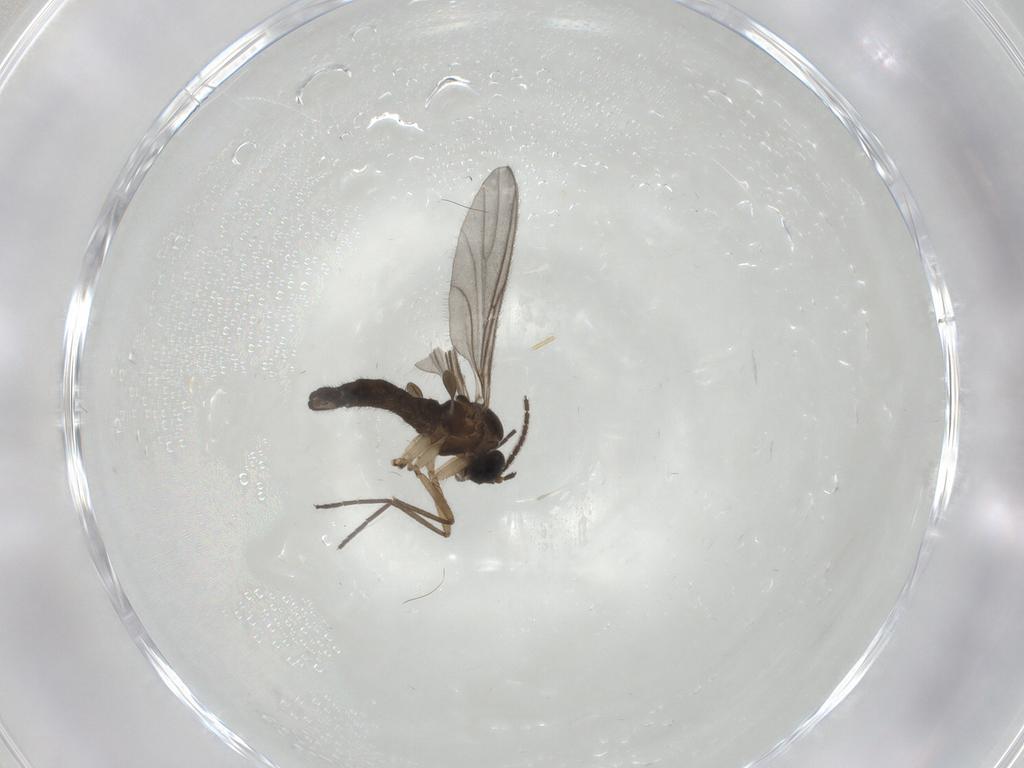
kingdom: Animalia
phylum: Arthropoda
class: Insecta
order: Diptera
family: Sciaridae
